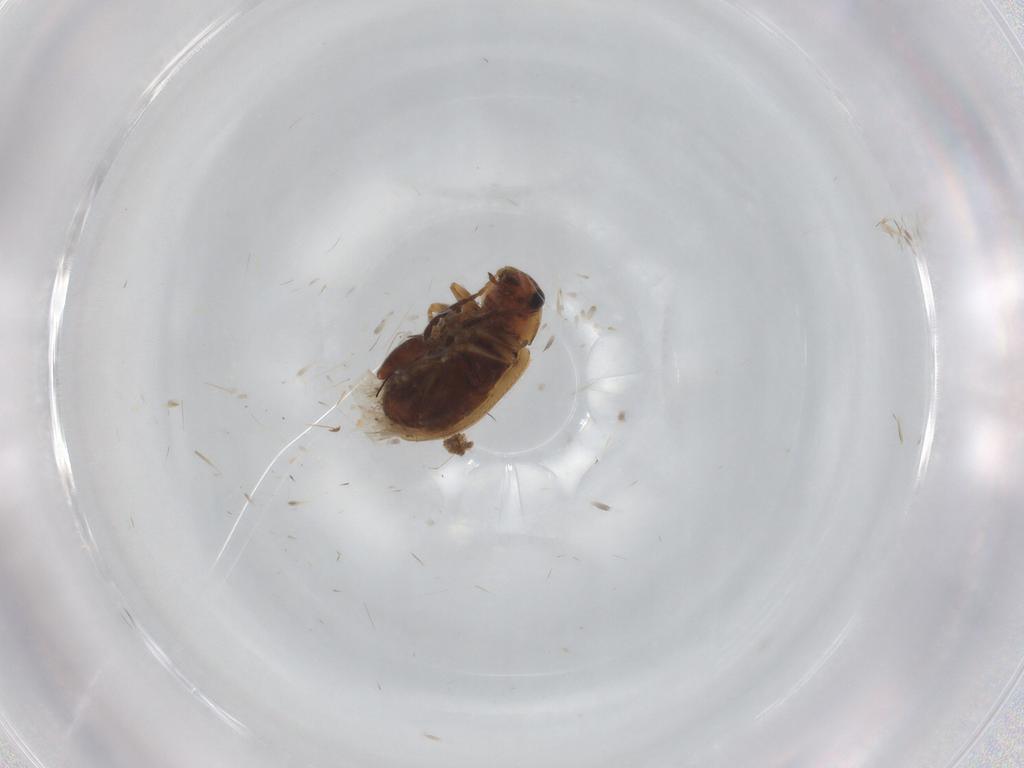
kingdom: Animalia
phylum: Arthropoda
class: Insecta
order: Coleoptera
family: Chrysomelidae
